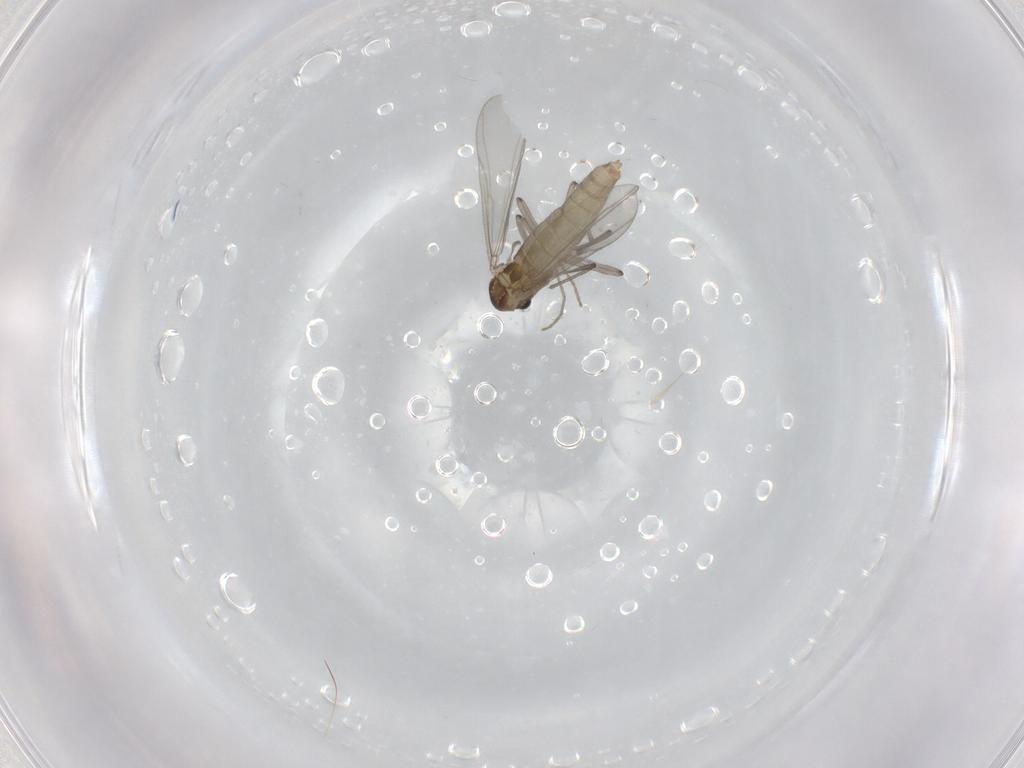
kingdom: Animalia
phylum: Arthropoda
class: Insecta
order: Diptera
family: Chironomidae
